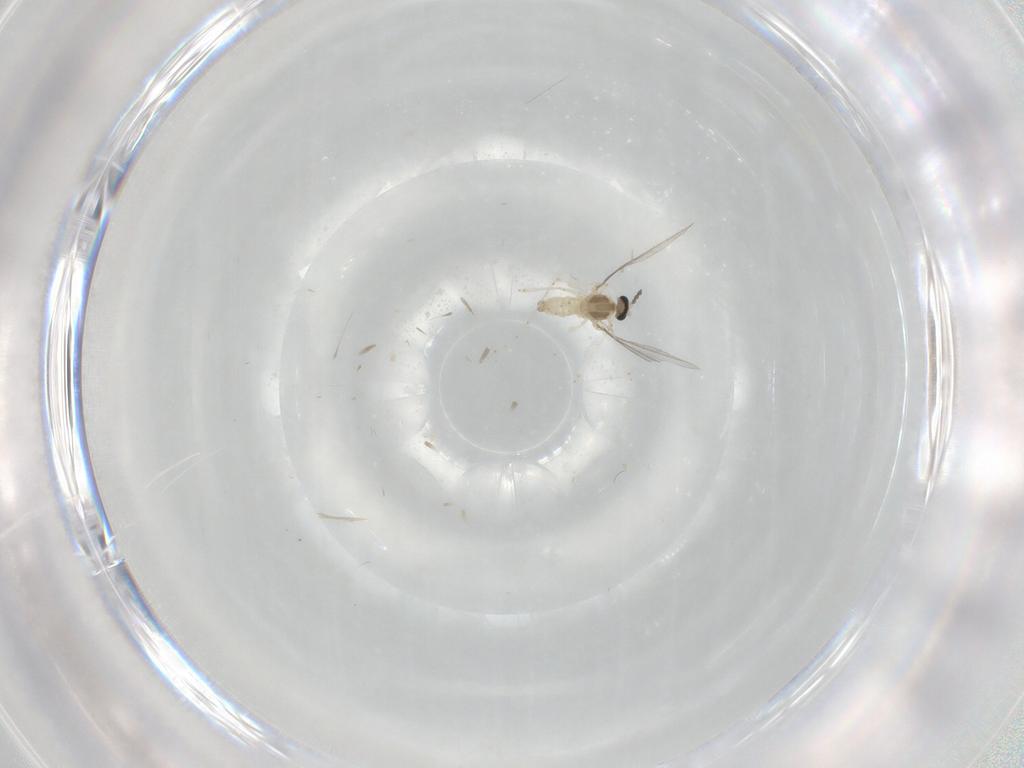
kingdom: Animalia
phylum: Arthropoda
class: Insecta
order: Diptera
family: Cecidomyiidae
